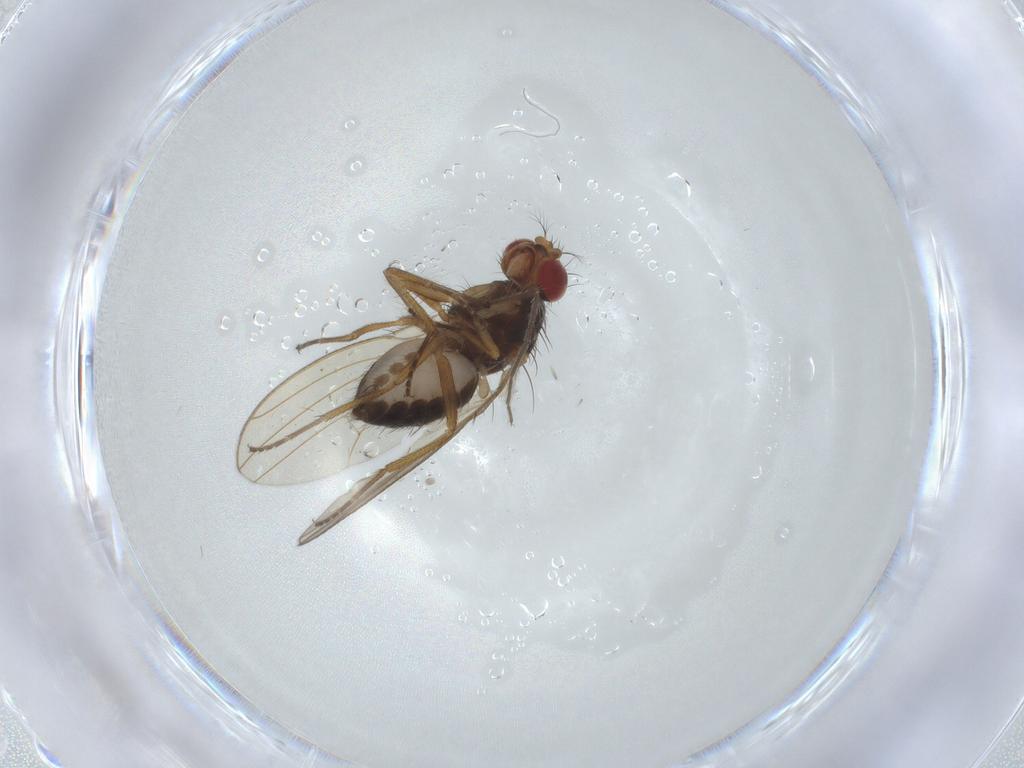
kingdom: Animalia
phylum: Arthropoda
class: Insecta
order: Diptera
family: Drosophilidae
